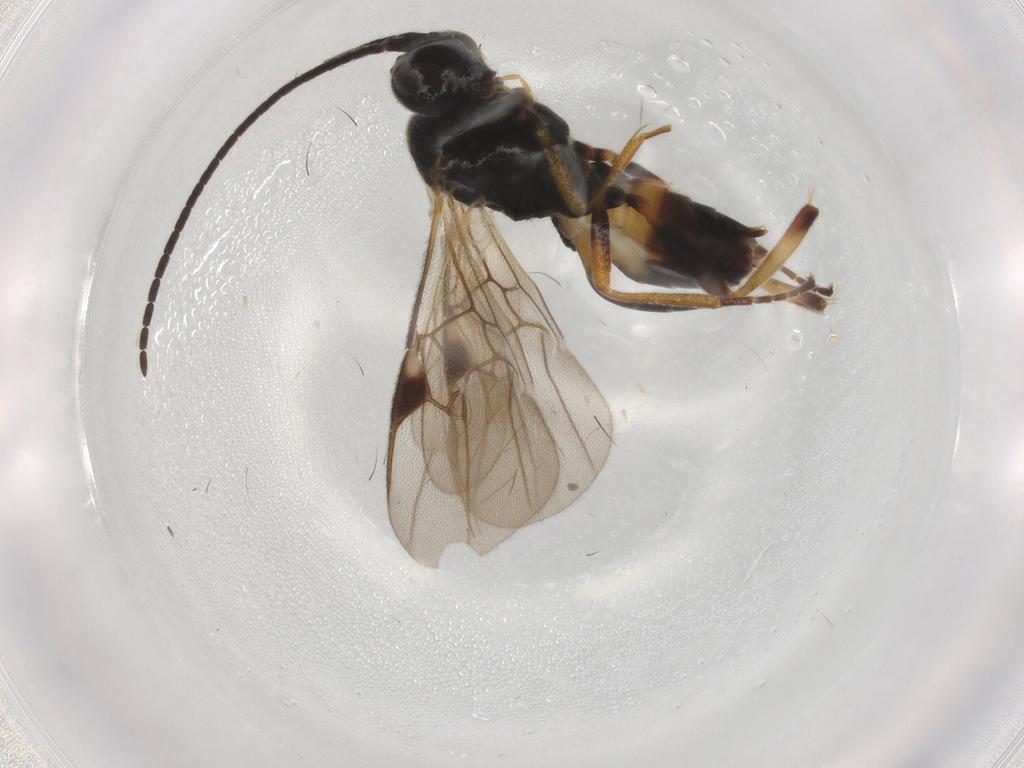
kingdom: Animalia
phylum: Arthropoda
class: Insecta
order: Hymenoptera
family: Braconidae
